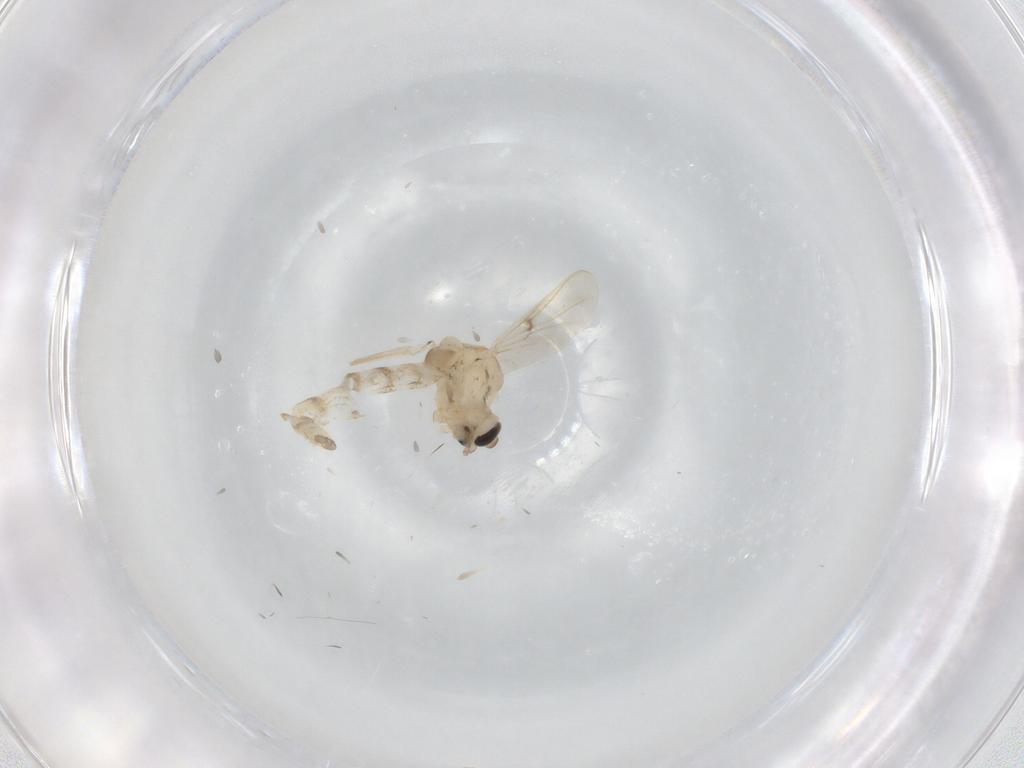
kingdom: Animalia
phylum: Arthropoda
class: Insecta
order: Diptera
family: Chironomidae
